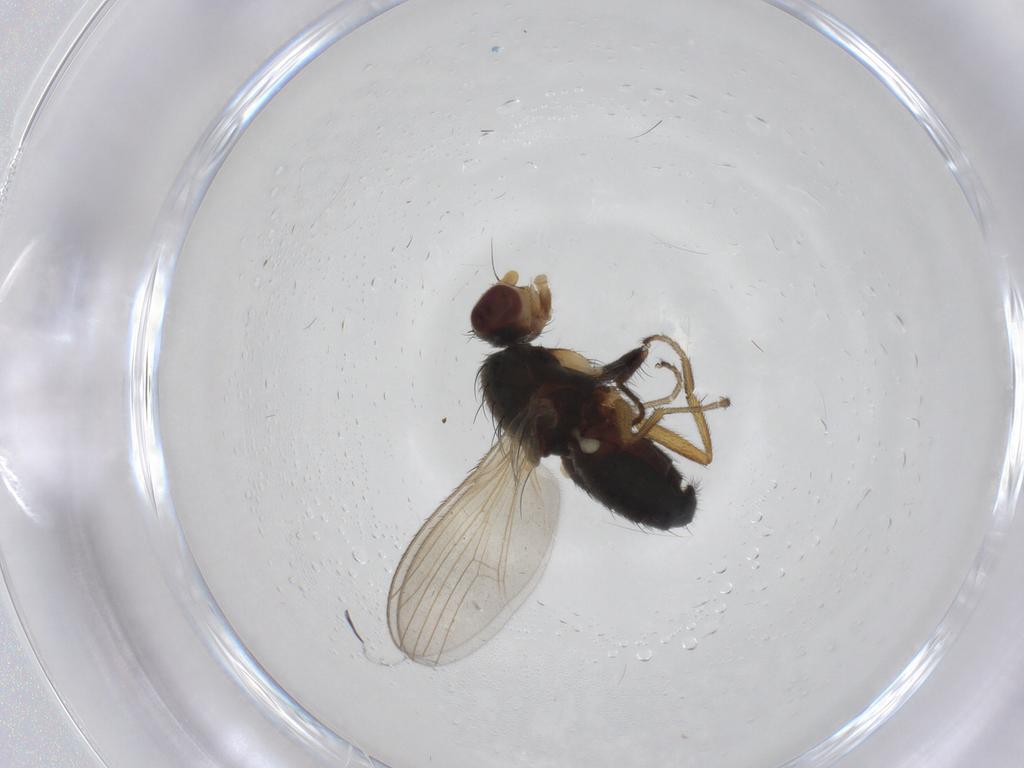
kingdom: Animalia
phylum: Arthropoda
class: Insecta
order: Diptera
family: Heleomyzidae
